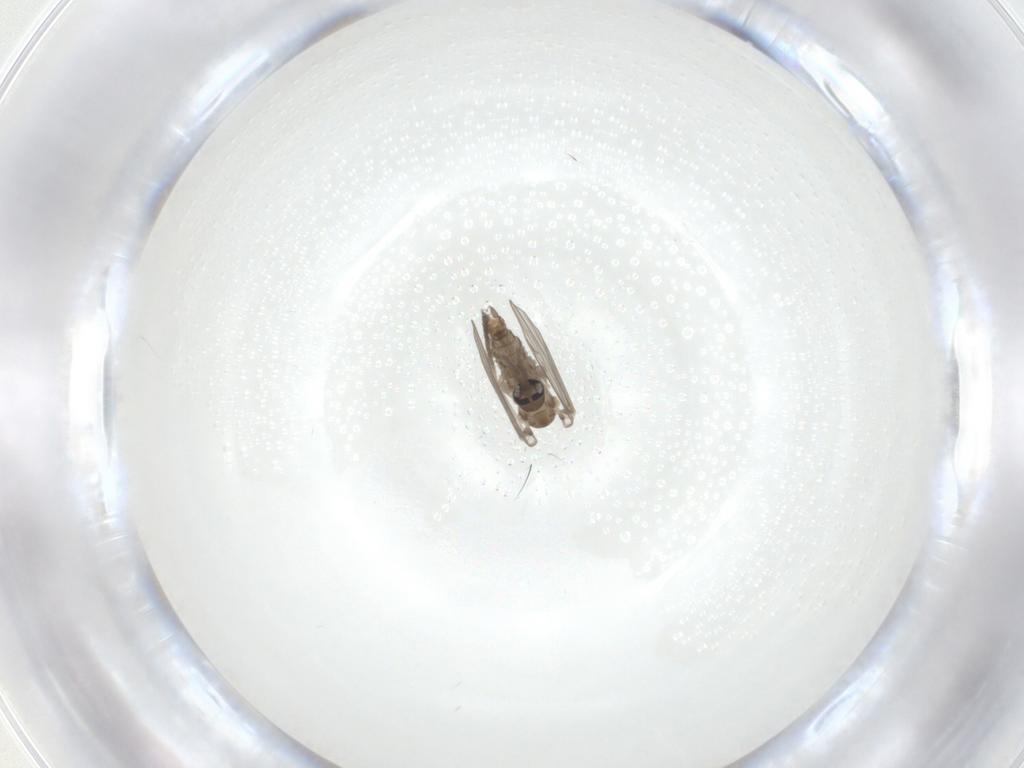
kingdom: Animalia
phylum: Arthropoda
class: Insecta
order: Diptera
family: Psychodidae
